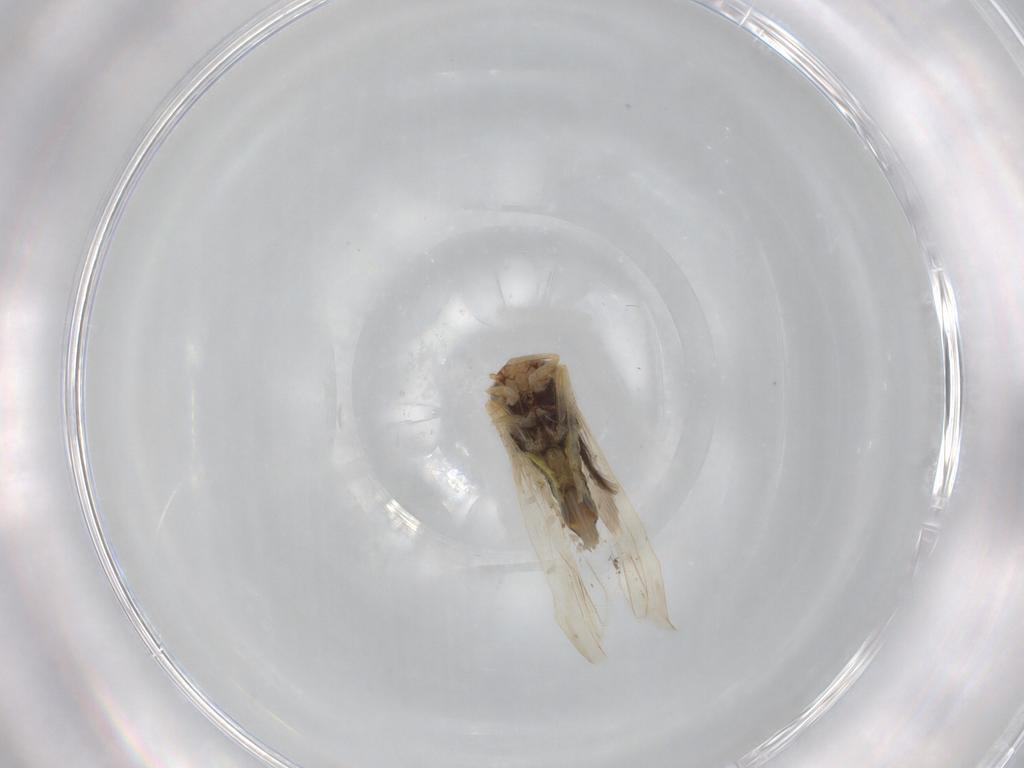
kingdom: Animalia
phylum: Arthropoda
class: Insecta
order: Hemiptera
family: Cicadellidae
